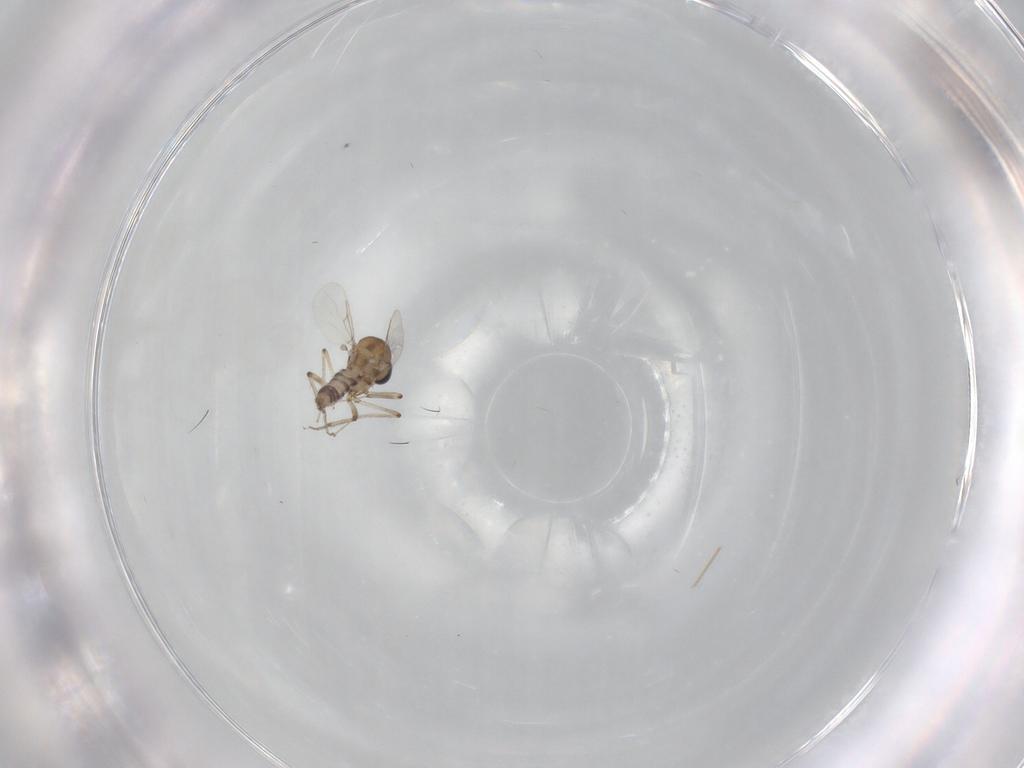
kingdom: Animalia
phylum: Arthropoda
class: Insecta
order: Diptera
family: Ceratopogonidae
